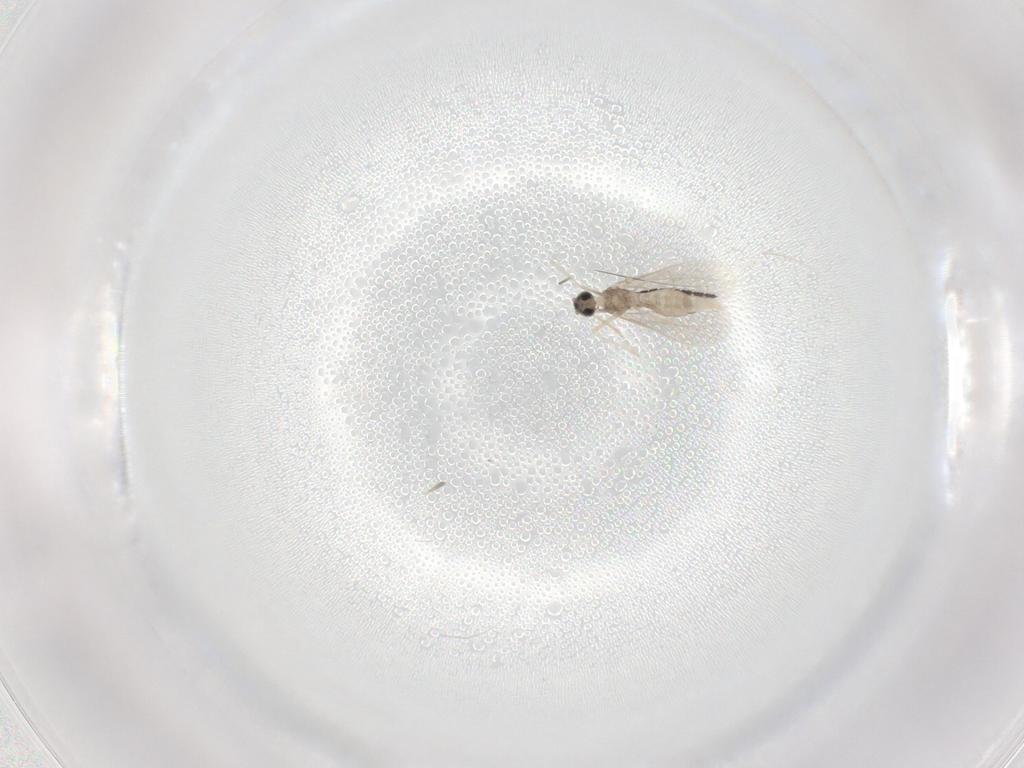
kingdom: Animalia
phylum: Arthropoda
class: Insecta
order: Diptera
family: Cecidomyiidae
